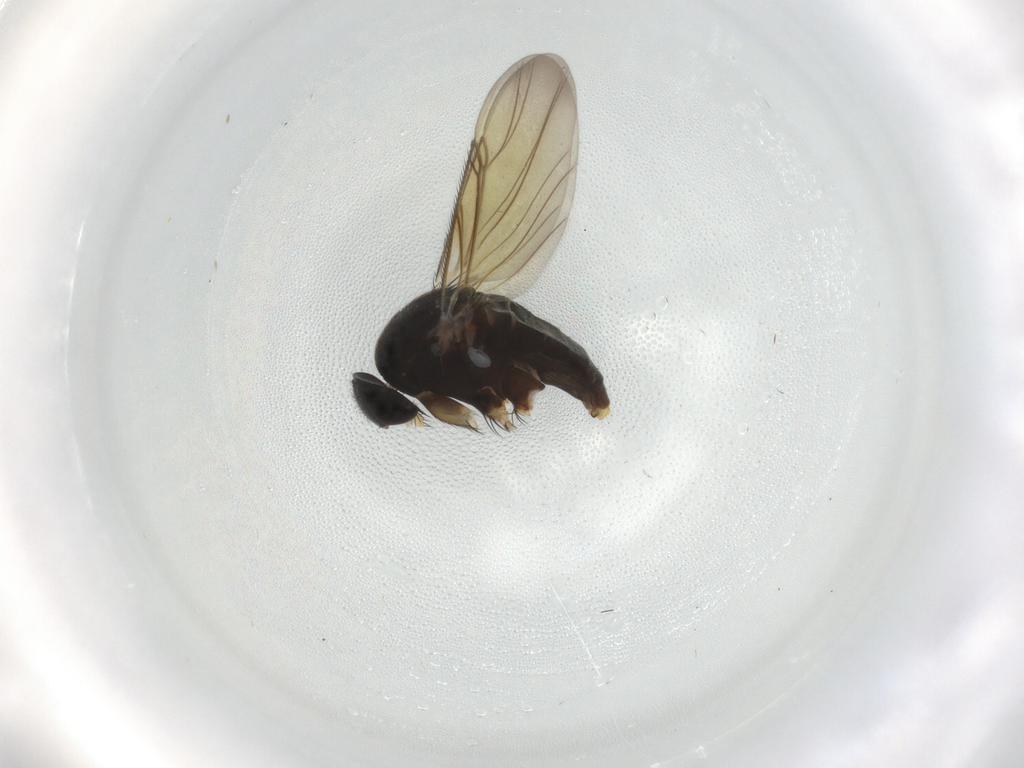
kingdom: Animalia
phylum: Arthropoda
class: Insecta
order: Diptera
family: Phoridae
